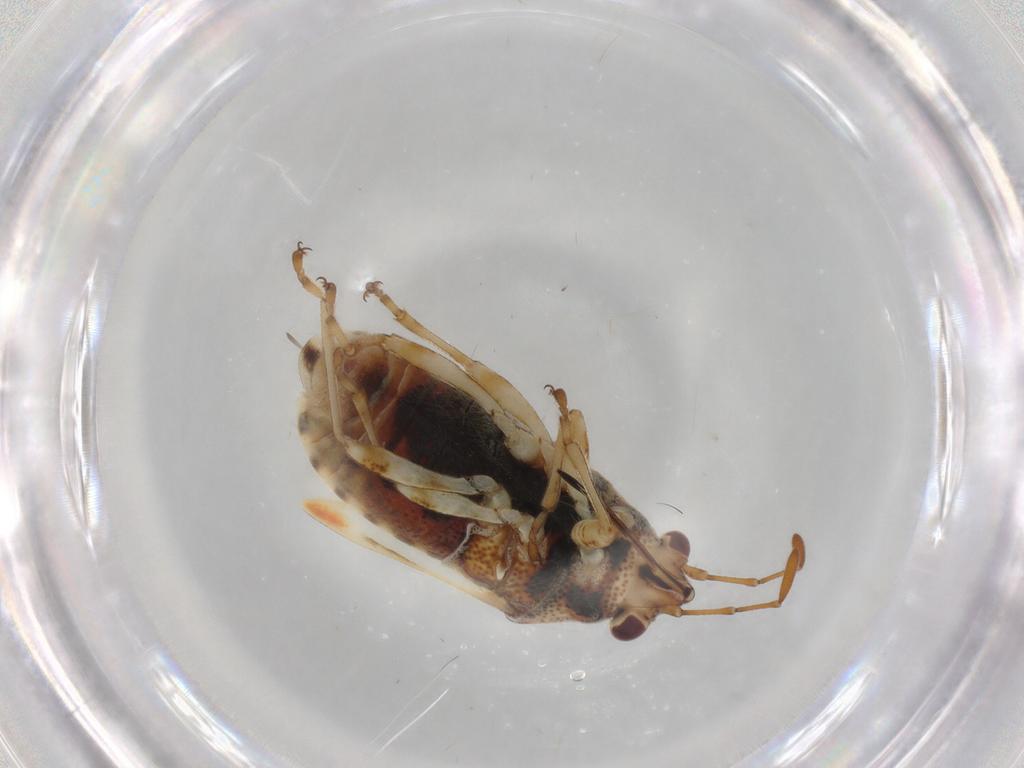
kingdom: Animalia
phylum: Arthropoda
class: Insecta
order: Hemiptera
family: Lygaeidae
